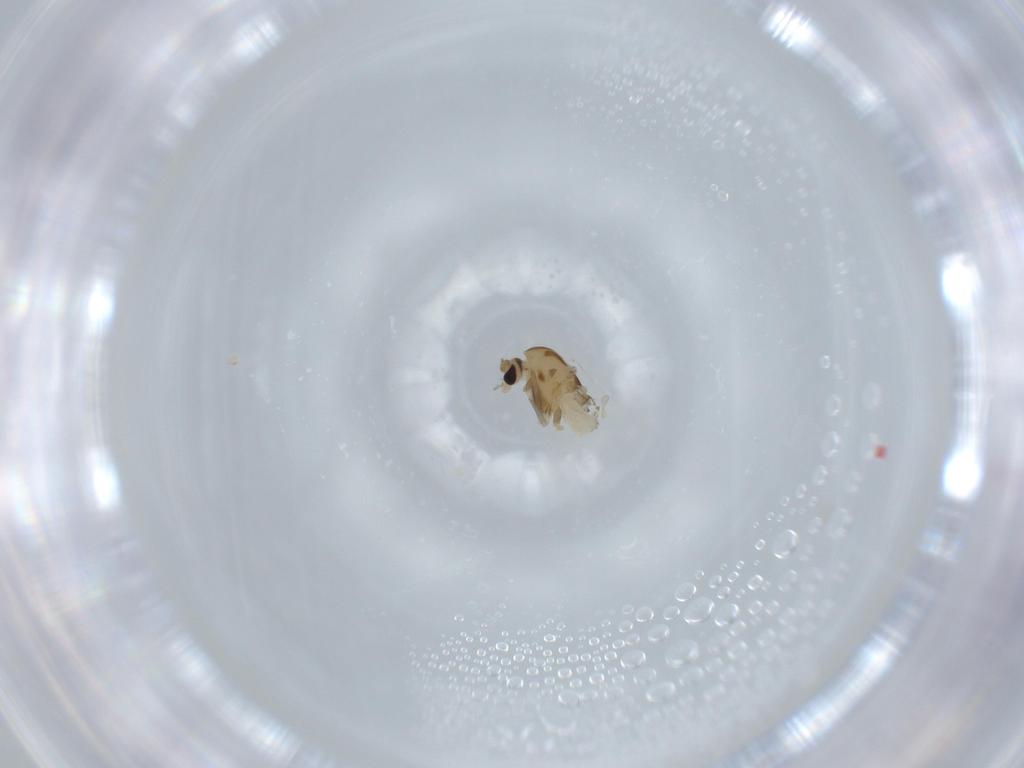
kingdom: Animalia
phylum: Arthropoda
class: Insecta
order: Diptera
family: Chironomidae
